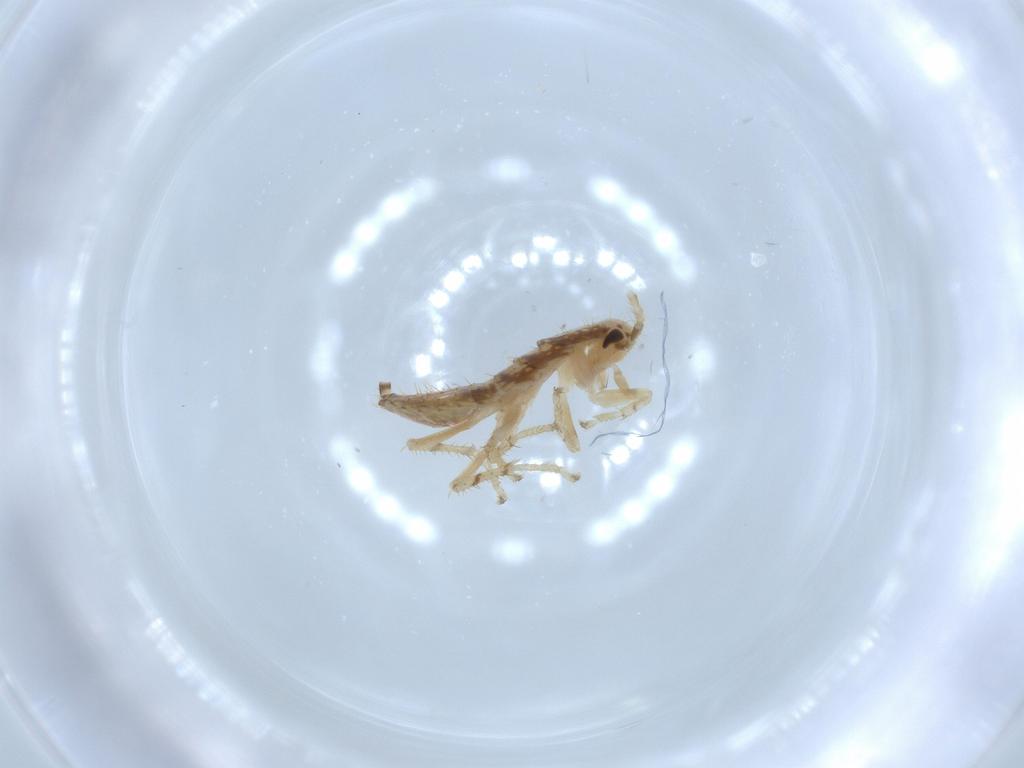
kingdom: Animalia
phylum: Arthropoda
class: Insecta
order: Blattodea
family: Ectobiidae
